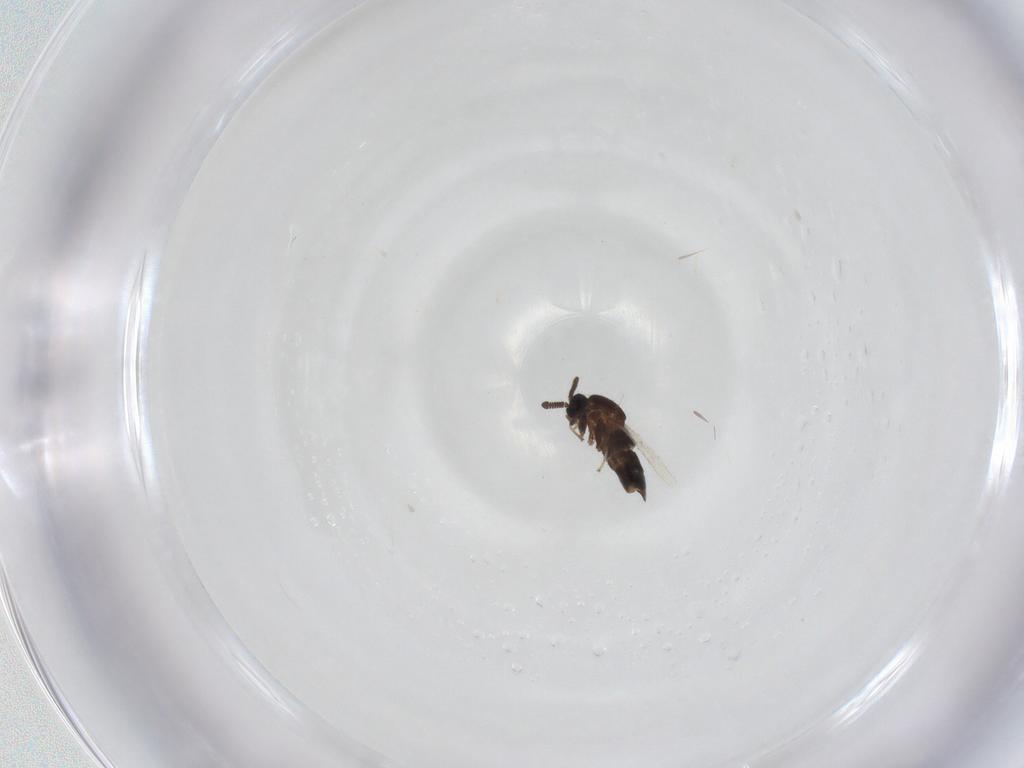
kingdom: Animalia
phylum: Arthropoda
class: Insecta
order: Diptera
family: Scatopsidae
